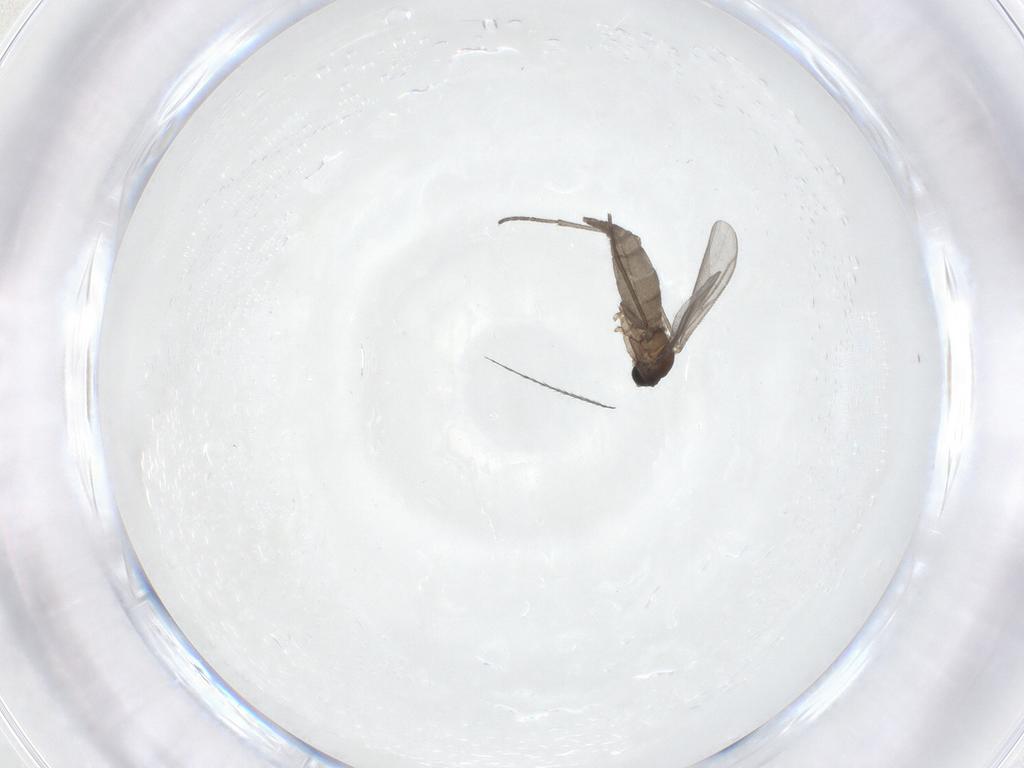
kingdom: Animalia
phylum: Arthropoda
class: Insecta
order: Diptera
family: Sciaridae
